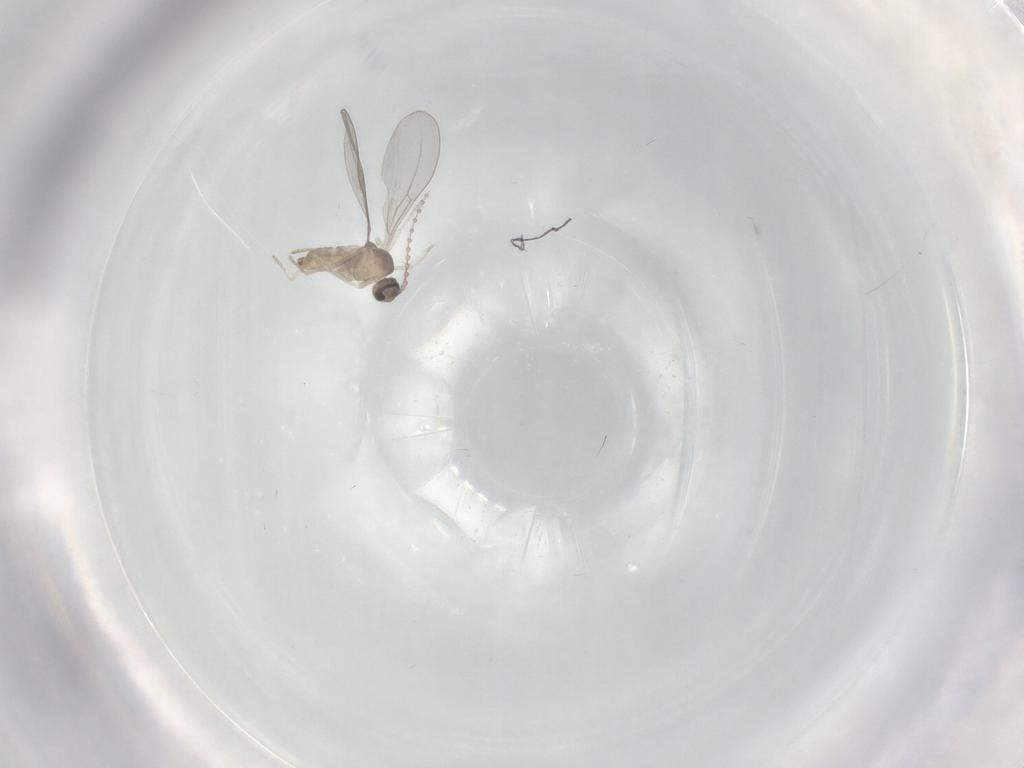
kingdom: Animalia
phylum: Arthropoda
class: Insecta
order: Diptera
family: Cecidomyiidae
